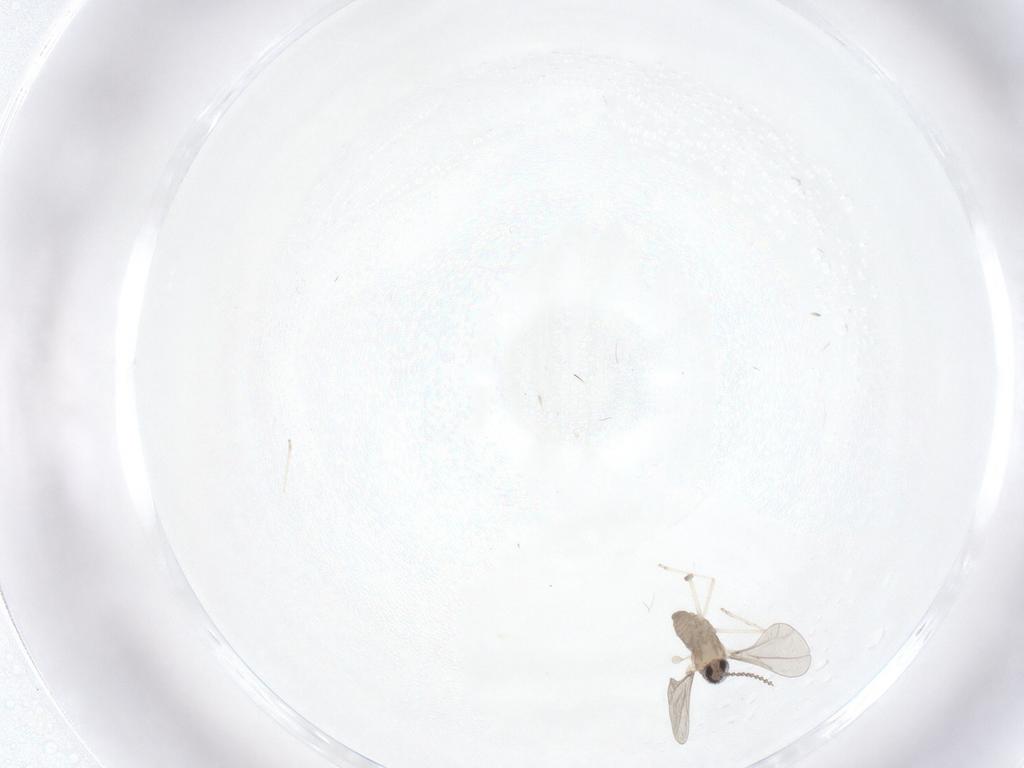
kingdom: Animalia
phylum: Arthropoda
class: Insecta
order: Diptera
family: Cecidomyiidae
